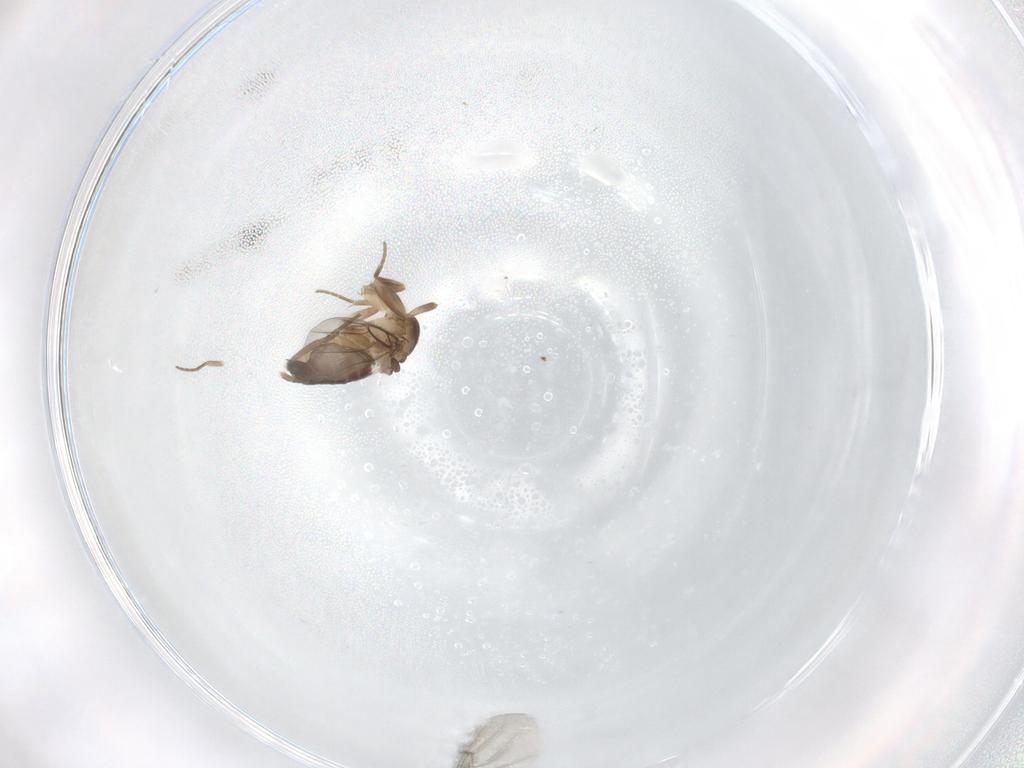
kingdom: Animalia
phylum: Arthropoda
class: Insecta
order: Diptera
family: Phoridae
